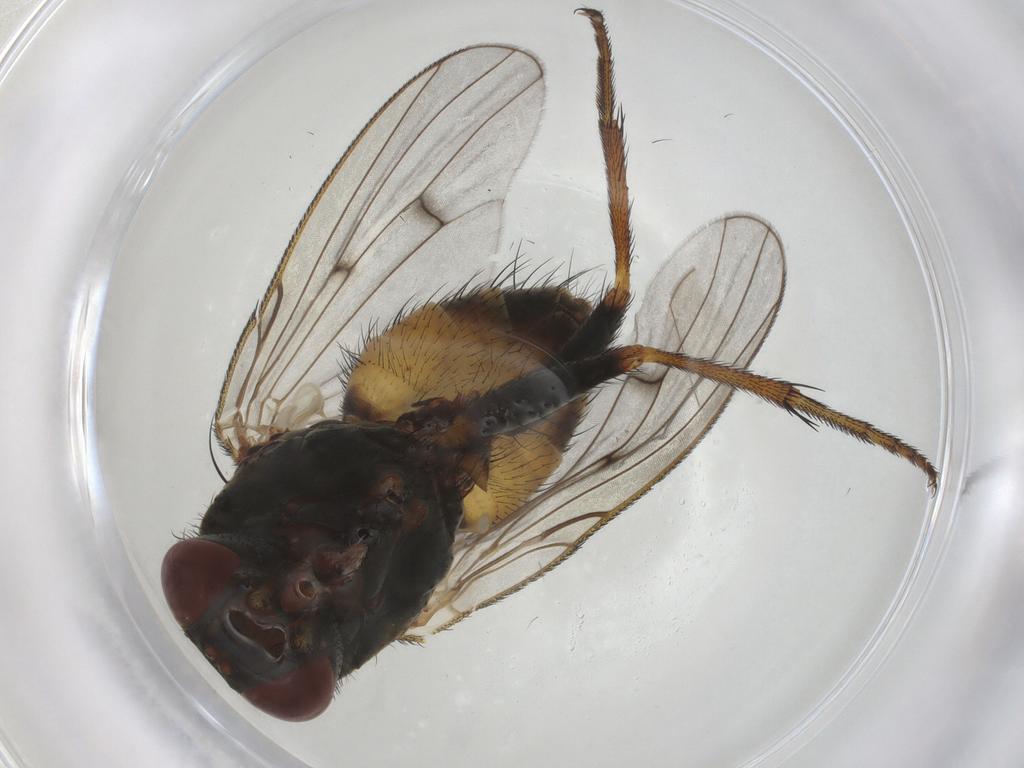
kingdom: Animalia
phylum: Arthropoda
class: Insecta
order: Diptera
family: Muscidae
